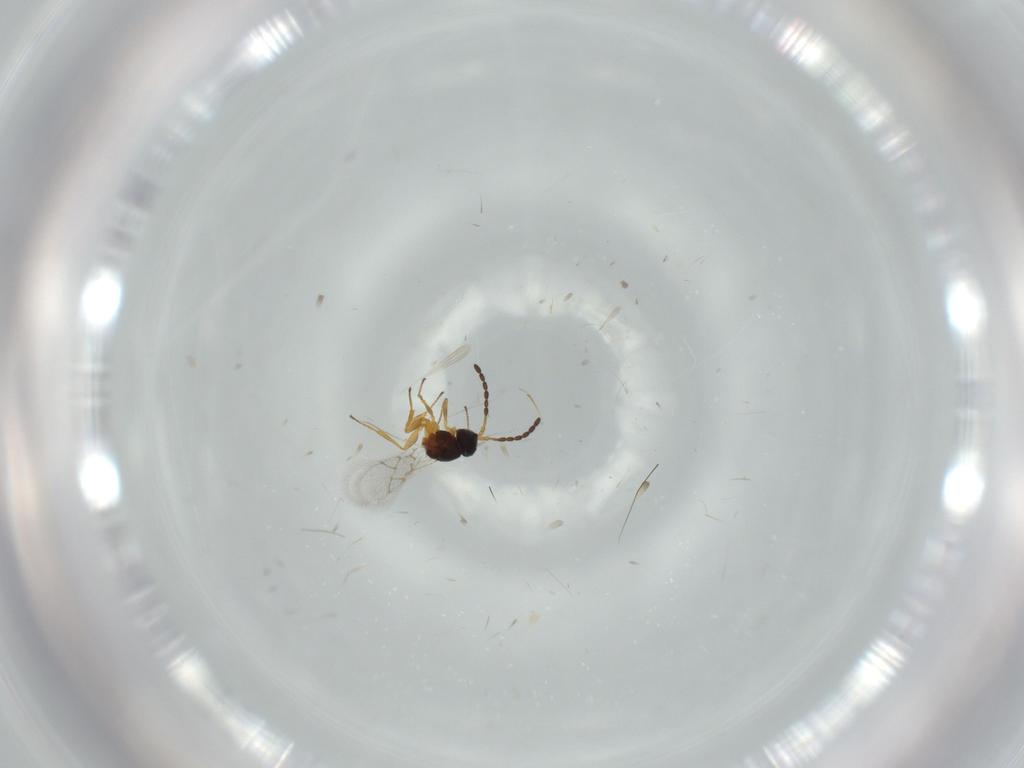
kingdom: Animalia
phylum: Arthropoda
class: Insecta
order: Hymenoptera
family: Figitidae
